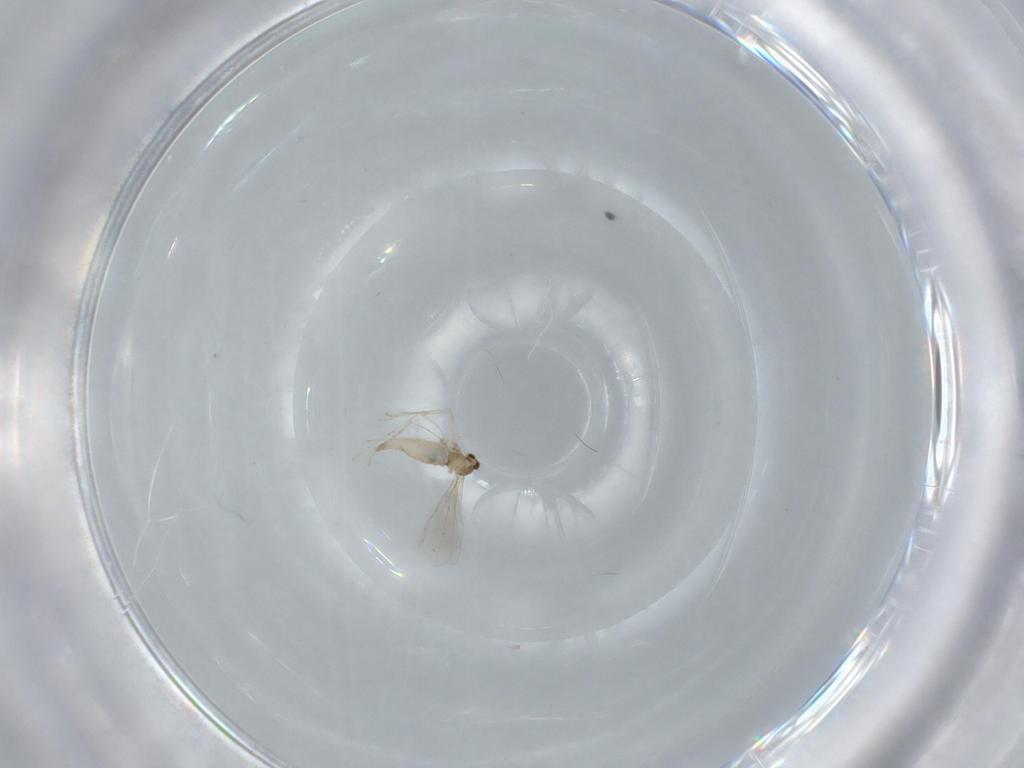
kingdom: Animalia
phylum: Arthropoda
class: Insecta
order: Diptera
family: Cecidomyiidae
